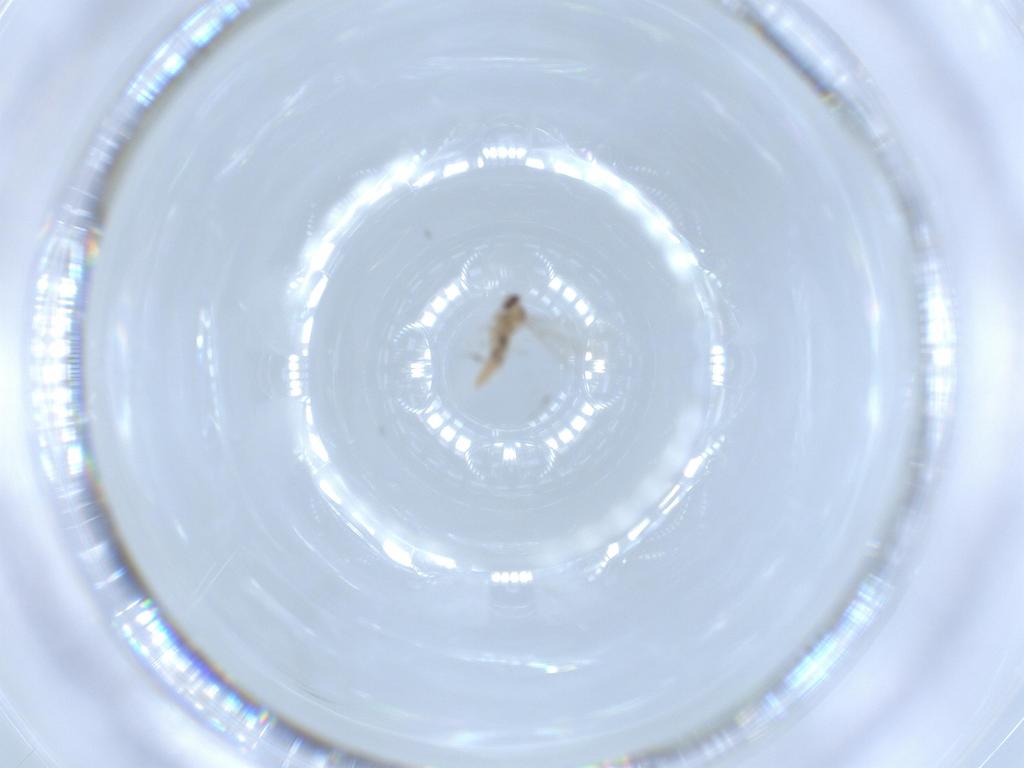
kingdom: Animalia
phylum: Arthropoda
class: Insecta
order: Diptera
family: Cecidomyiidae
